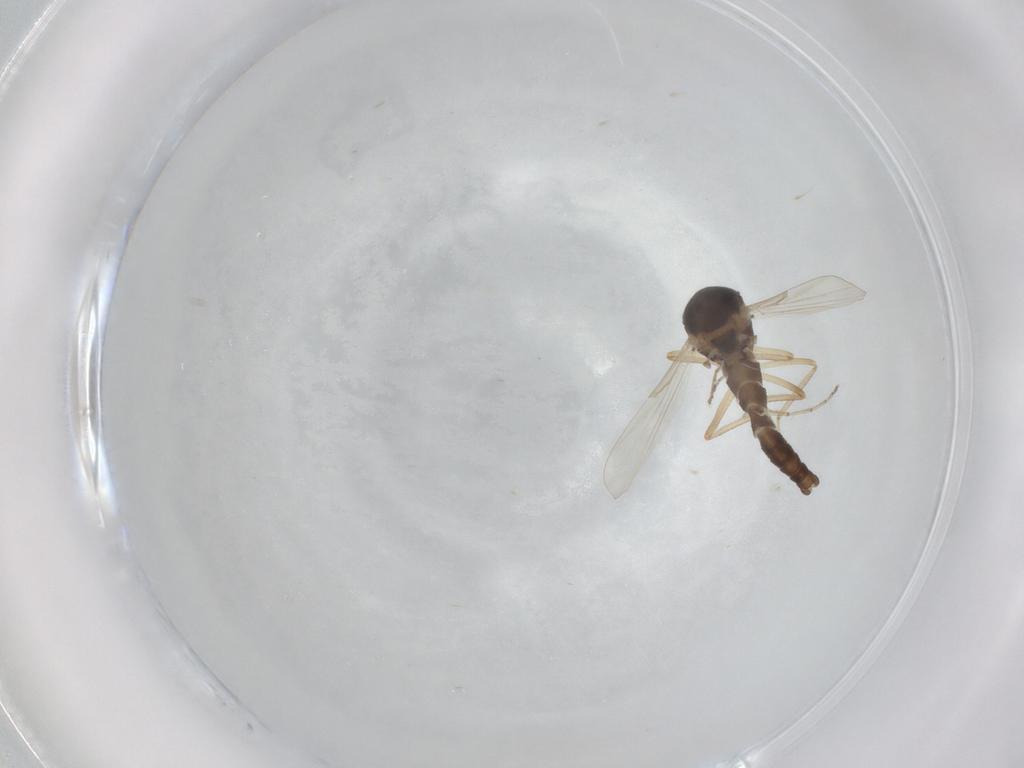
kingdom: Animalia
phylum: Arthropoda
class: Insecta
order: Diptera
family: Ceratopogonidae
